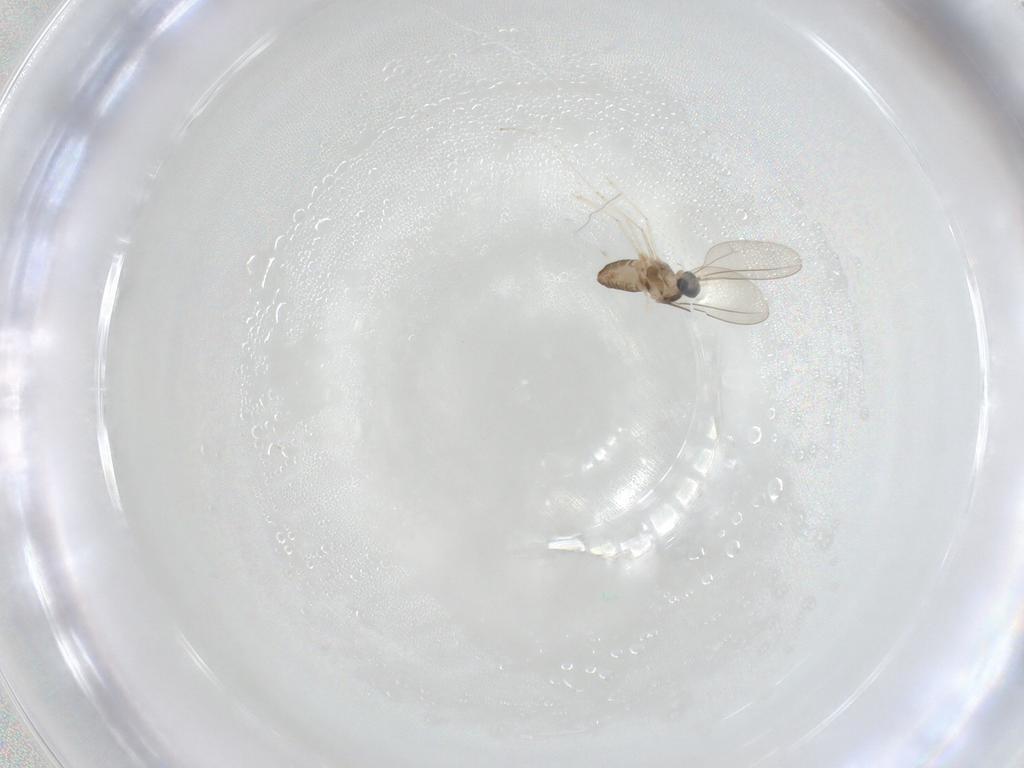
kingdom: Animalia
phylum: Arthropoda
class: Insecta
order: Diptera
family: Cecidomyiidae
